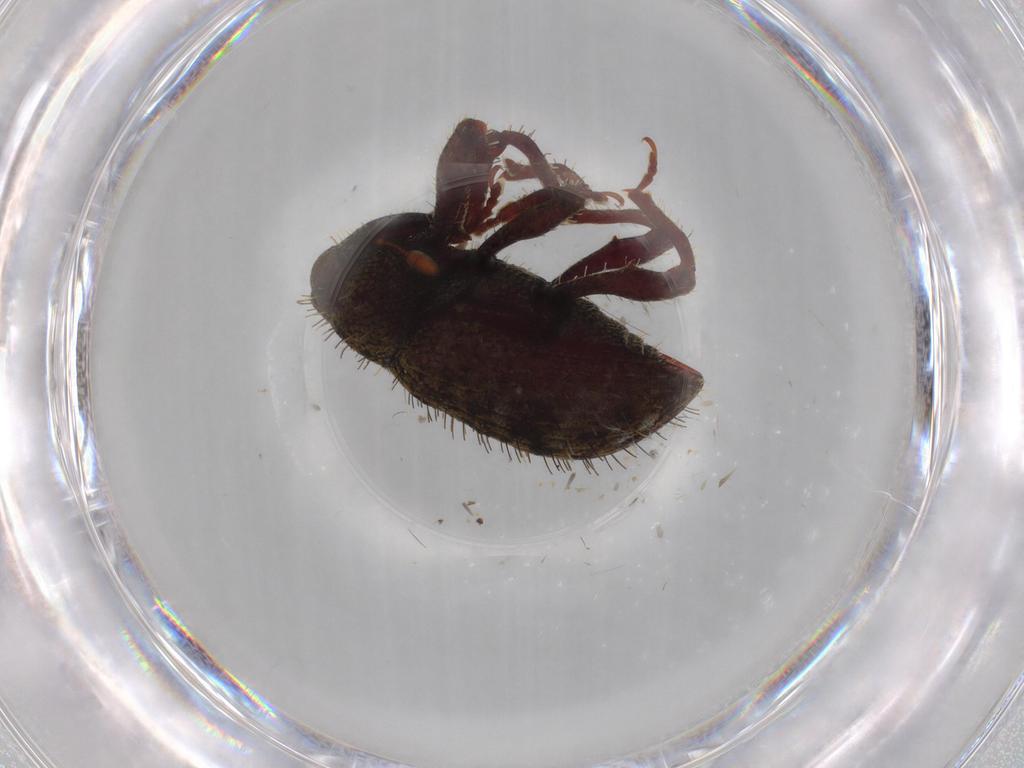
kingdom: Animalia
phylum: Arthropoda
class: Insecta
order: Coleoptera
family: Staphylinidae
